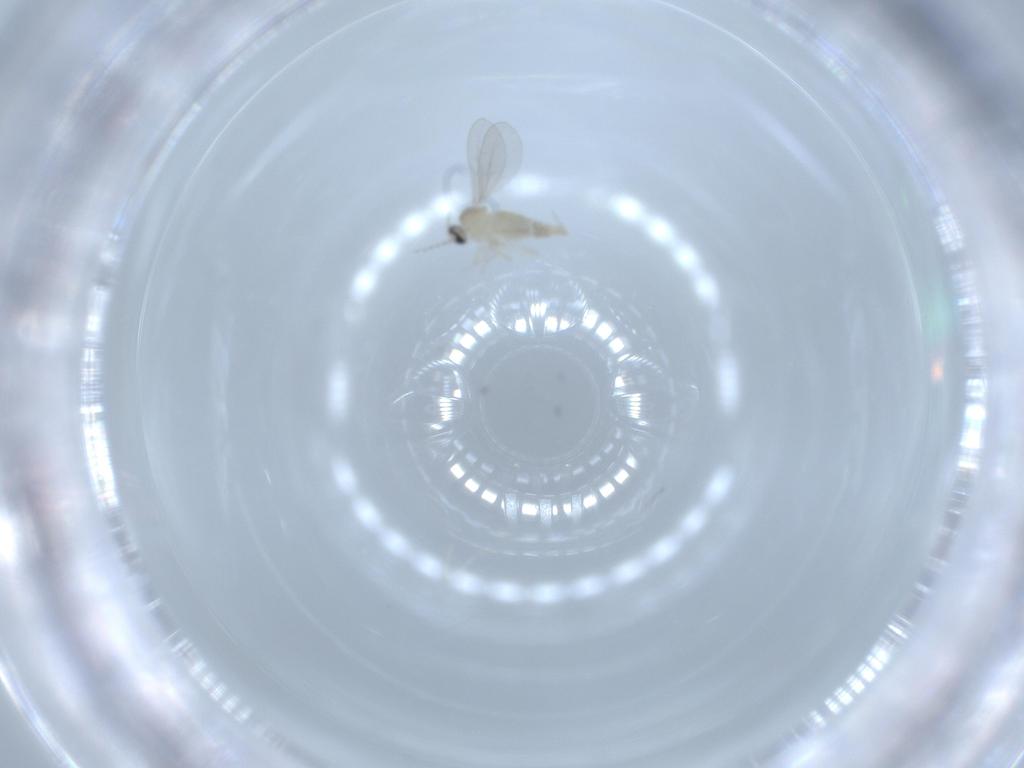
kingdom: Animalia
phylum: Arthropoda
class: Insecta
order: Diptera
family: Cecidomyiidae
